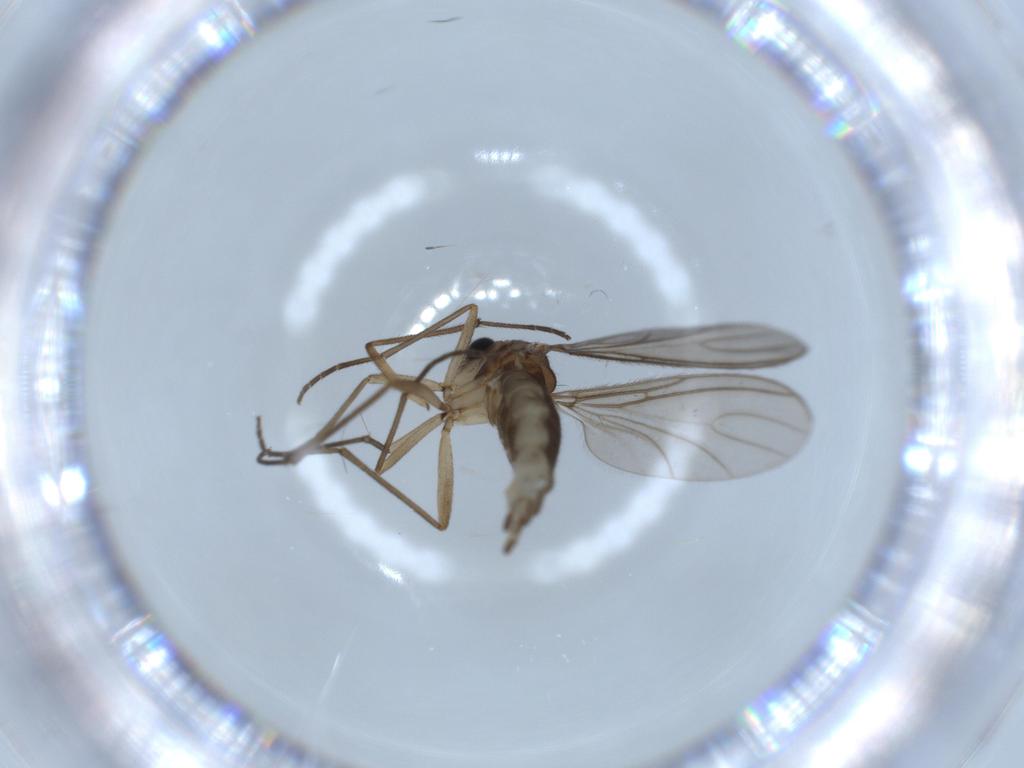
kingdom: Animalia
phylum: Arthropoda
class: Insecta
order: Diptera
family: Sciaridae
